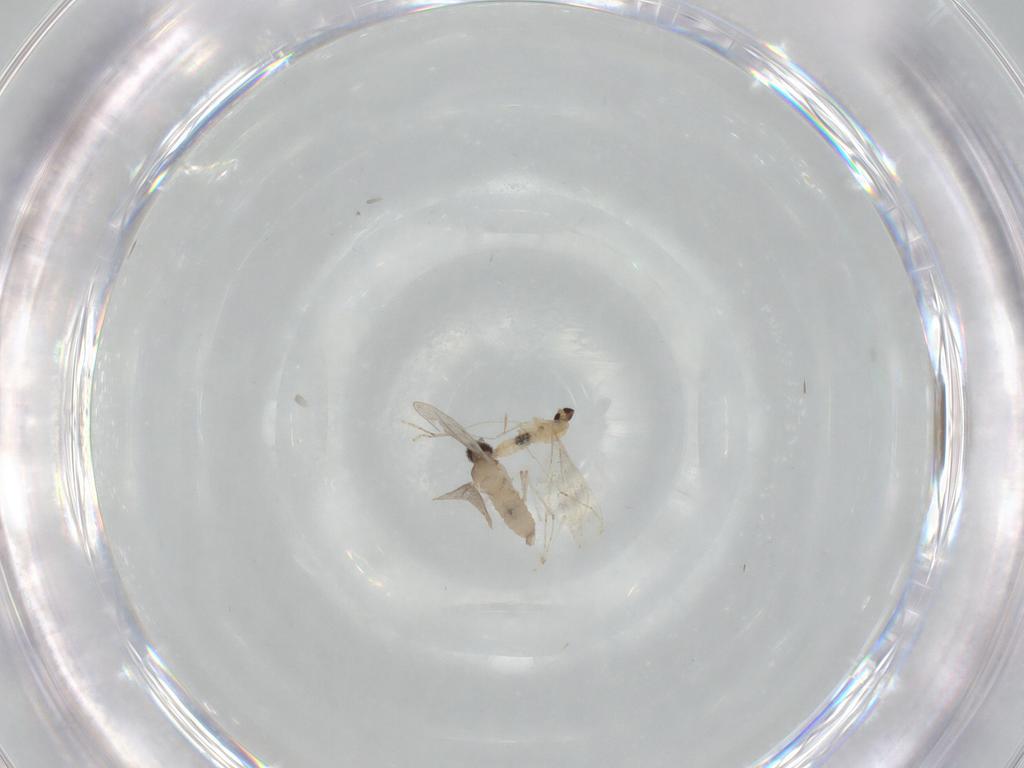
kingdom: Animalia
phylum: Arthropoda
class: Insecta
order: Diptera
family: Cecidomyiidae
